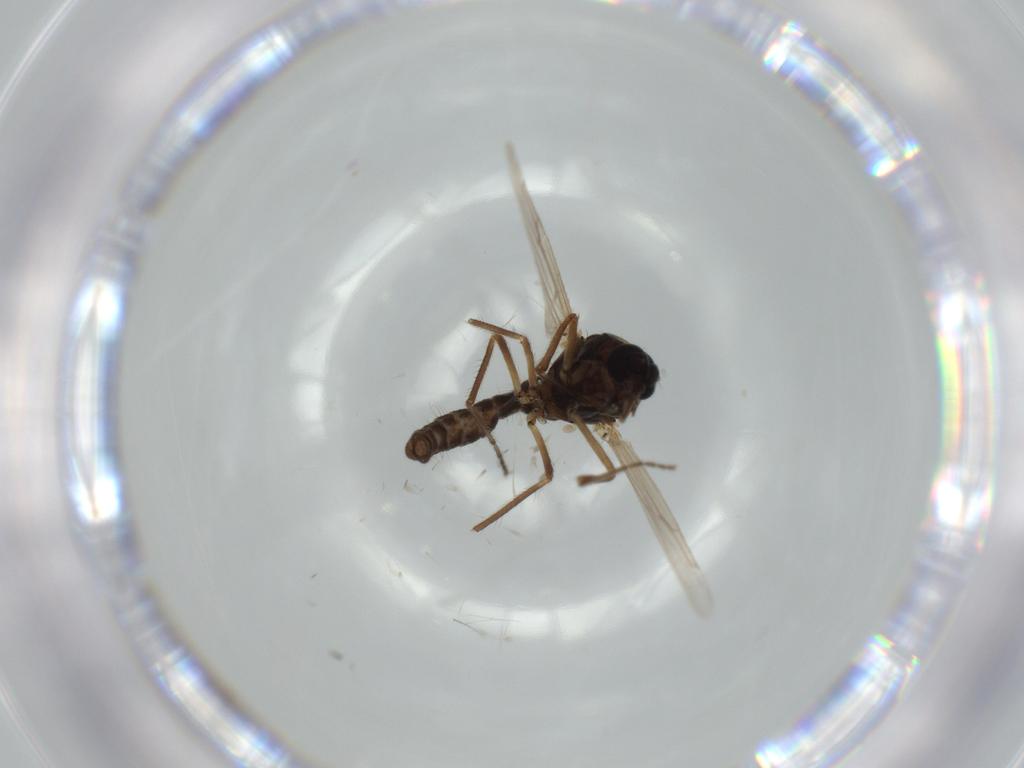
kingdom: Animalia
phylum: Arthropoda
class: Insecta
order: Diptera
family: Ceratopogonidae
